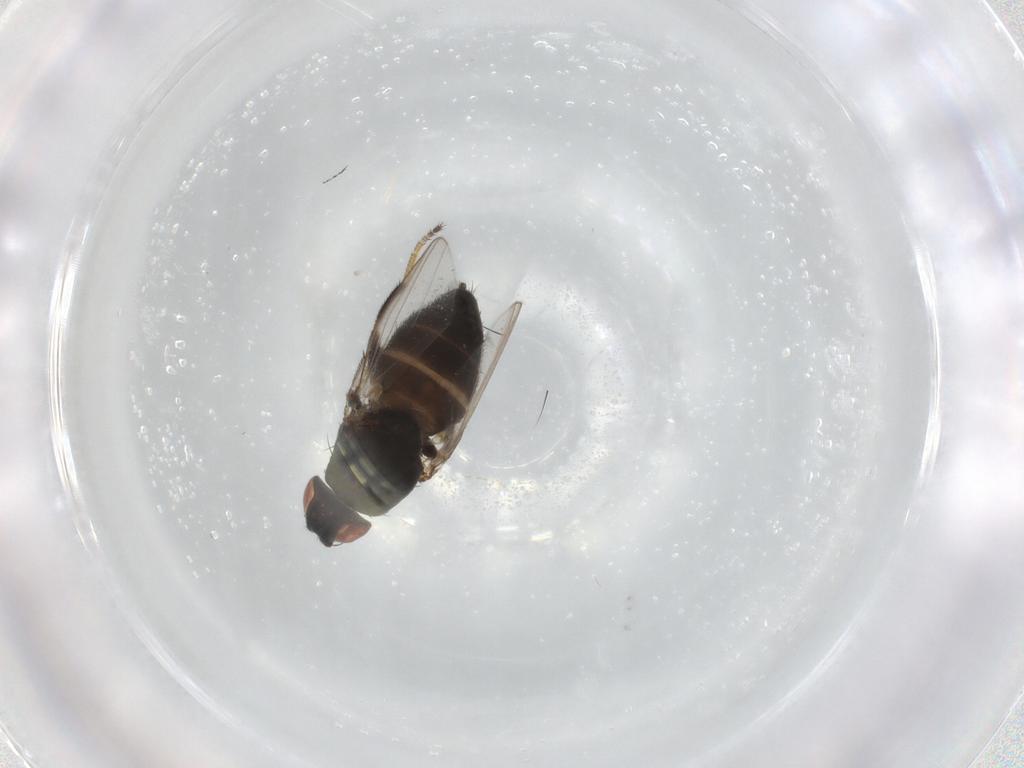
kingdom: Animalia
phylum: Arthropoda
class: Insecta
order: Diptera
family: Milichiidae
